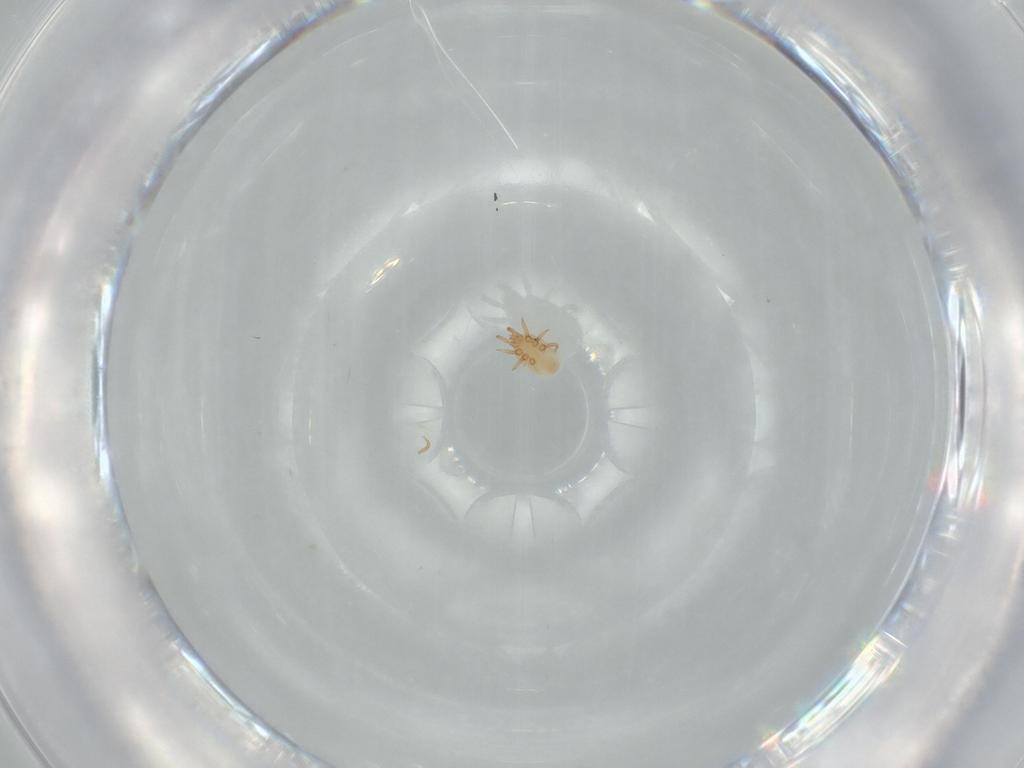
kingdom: Animalia
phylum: Arthropoda
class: Arachnida
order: Mesostigmata
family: Dinychidae
